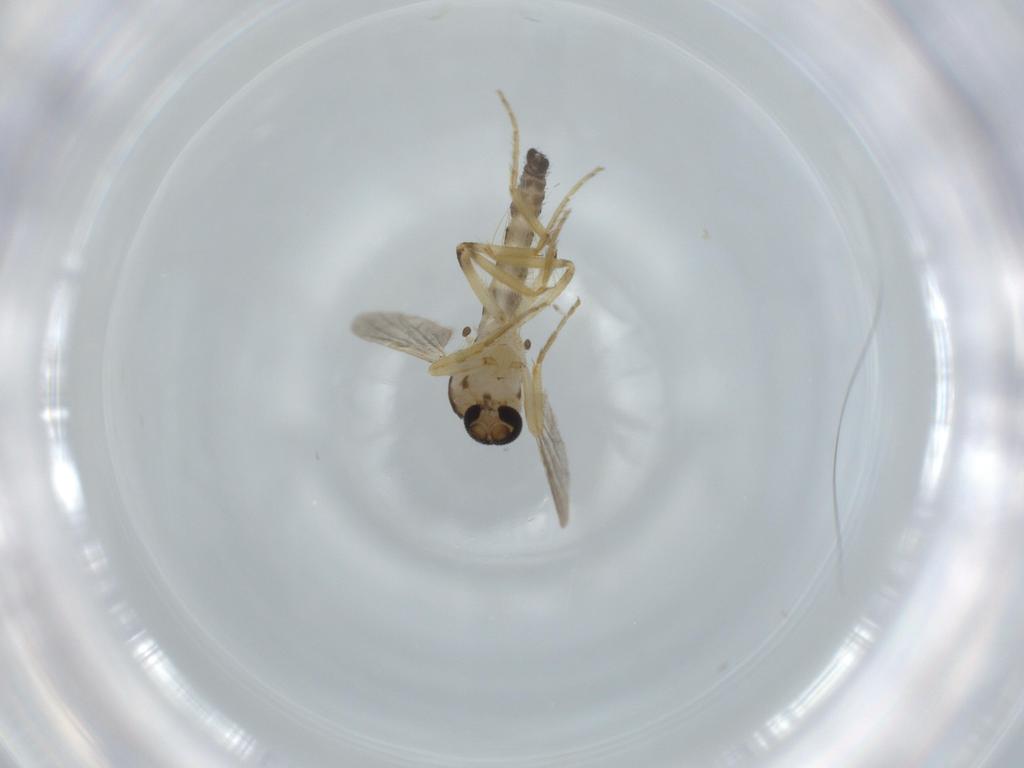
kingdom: Animalia
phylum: Arthropoda
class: Insecta
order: Diptera
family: Ceratopogonidae
